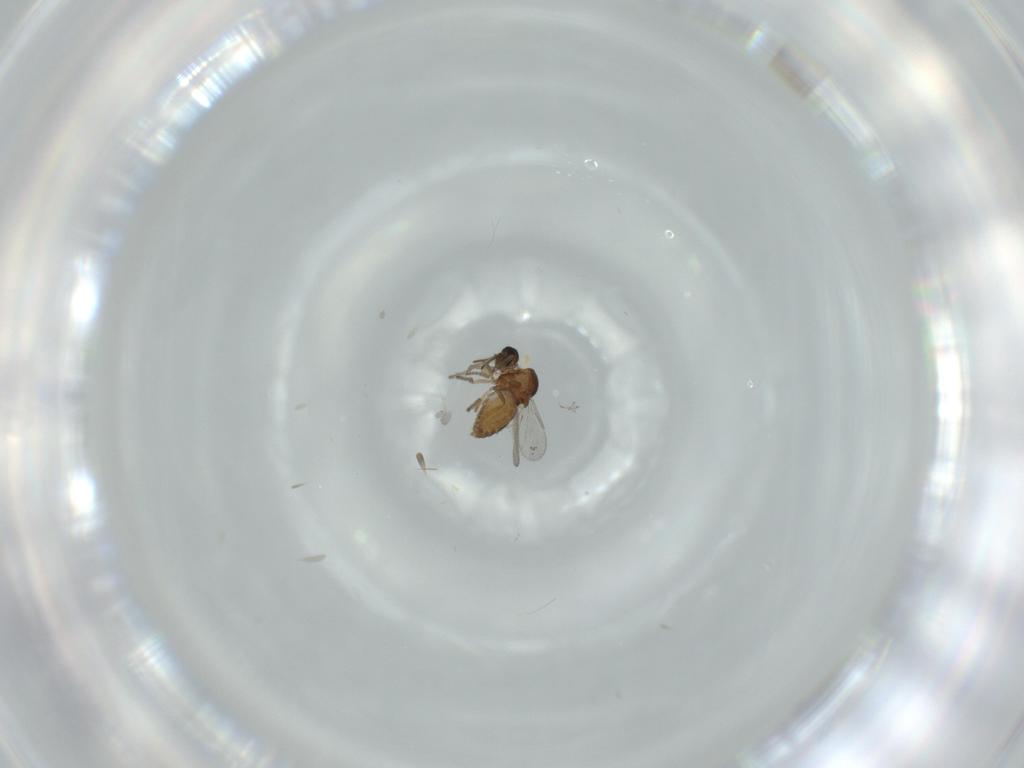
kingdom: Animalia
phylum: Arthropoda
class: Insecta
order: Diptera
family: Ceratopogonidae
